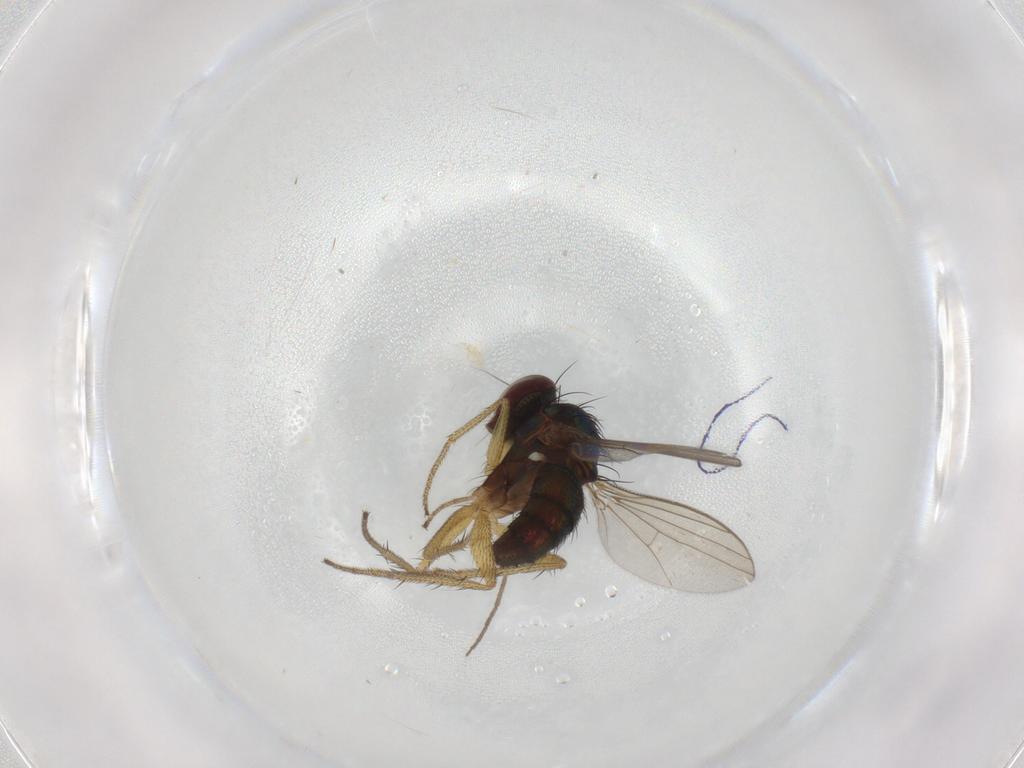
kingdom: Animalia
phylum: Arthropoda
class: Insecta
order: Diptera
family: Dolichopodidae
